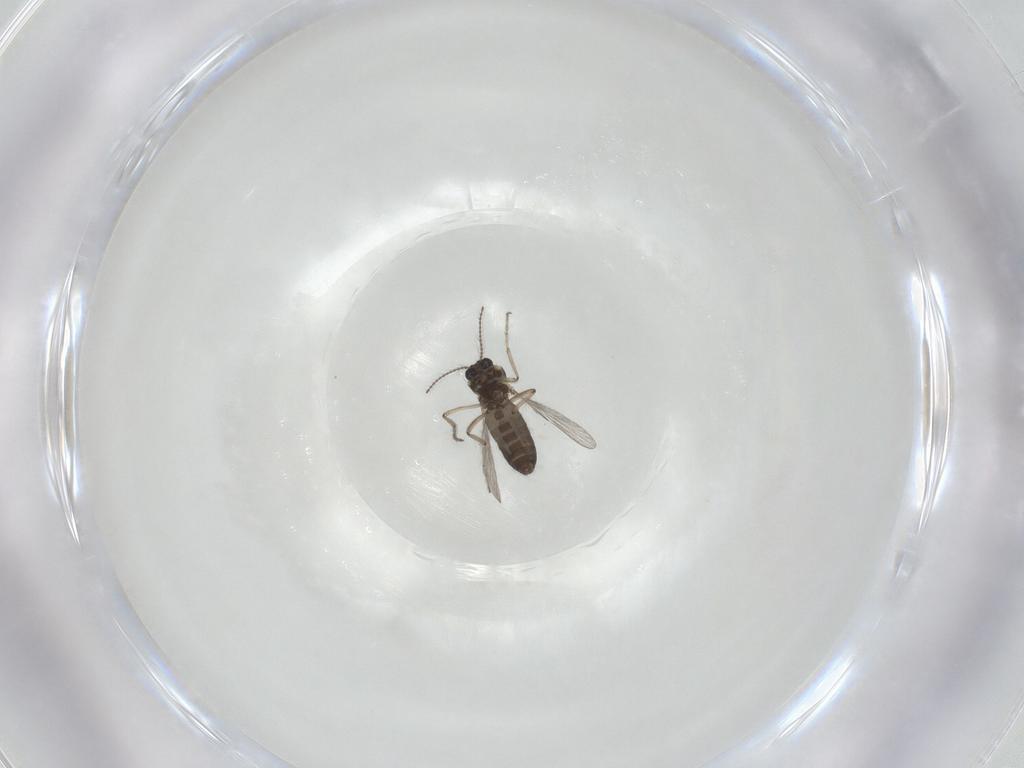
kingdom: Animalia
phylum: Arthropoda
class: Insecta
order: Diptera
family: Ceratopogonidae
